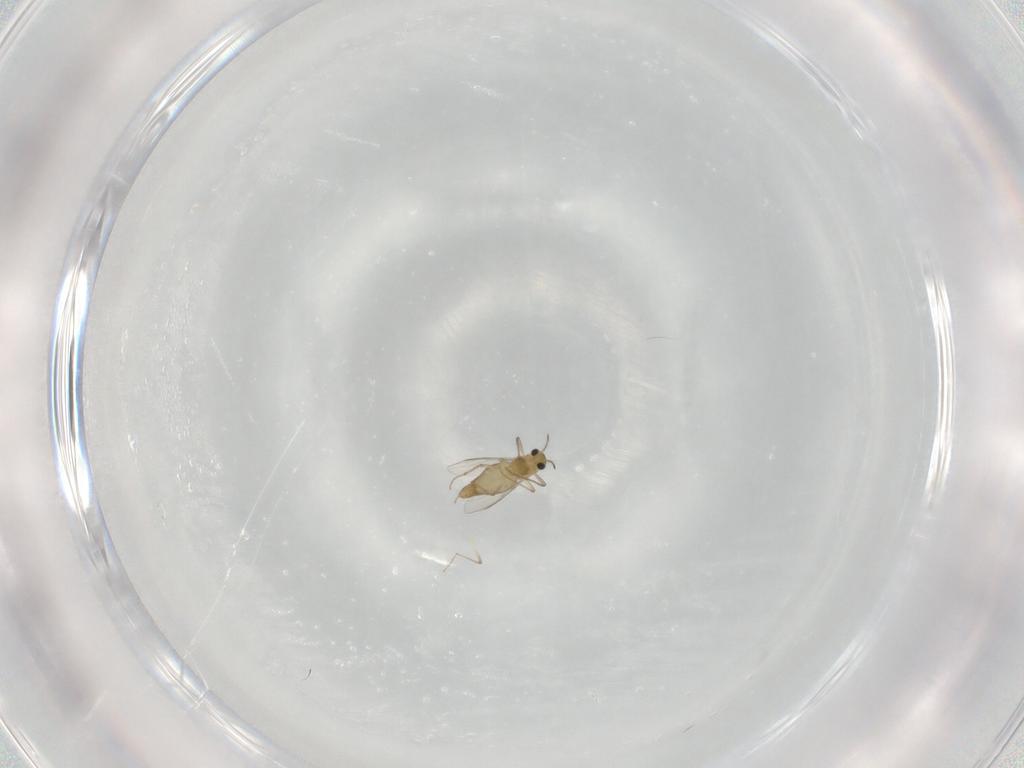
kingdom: Animalia
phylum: Arthropoda
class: Insecta
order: Diptera
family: Chironomidae
